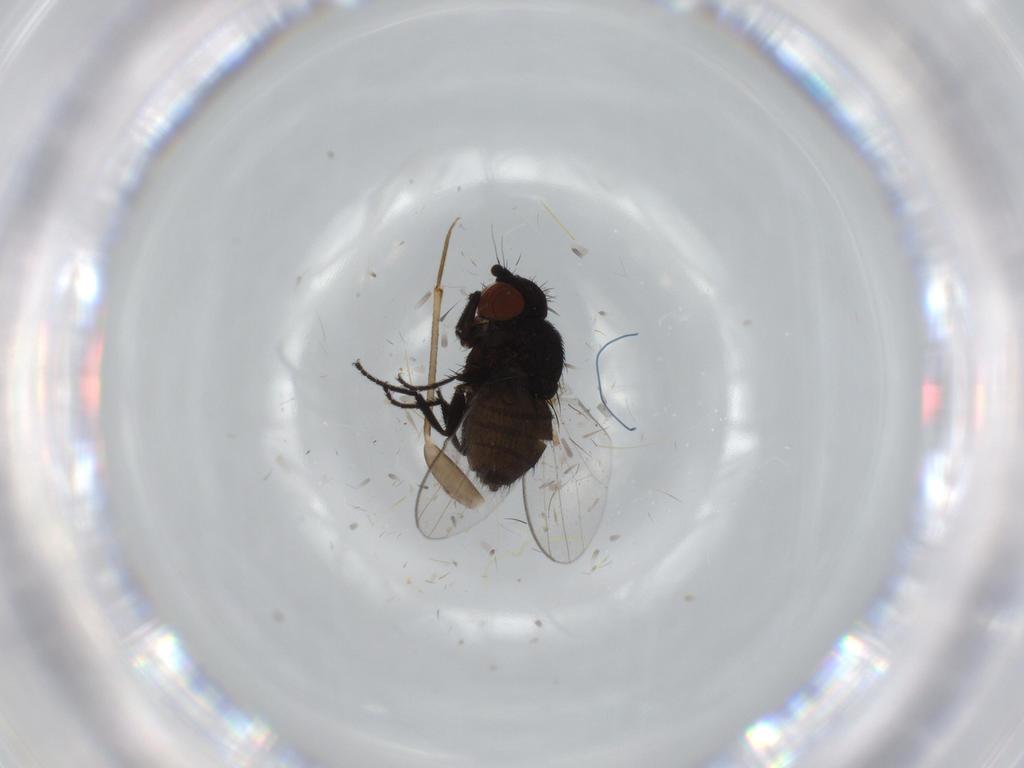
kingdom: Animalia
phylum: Arthropoda
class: Insecta
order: Diptera
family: Milichiidae
